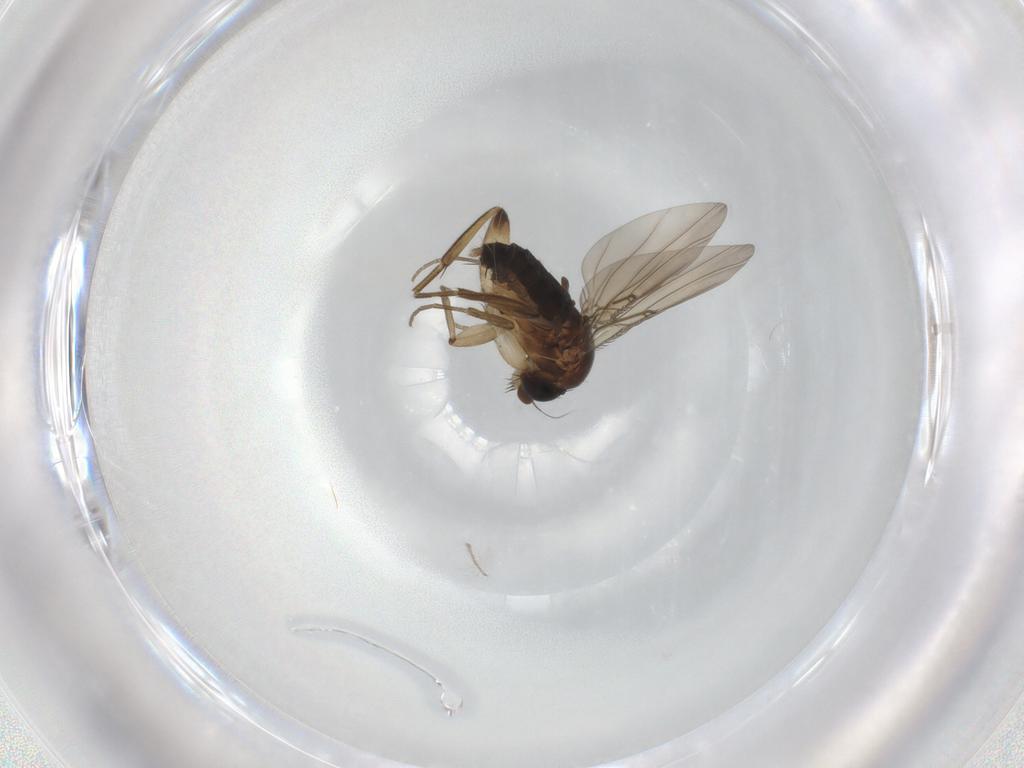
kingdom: Animalia
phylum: Arthropoda
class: Insecta
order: Diptera
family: Phoridae
